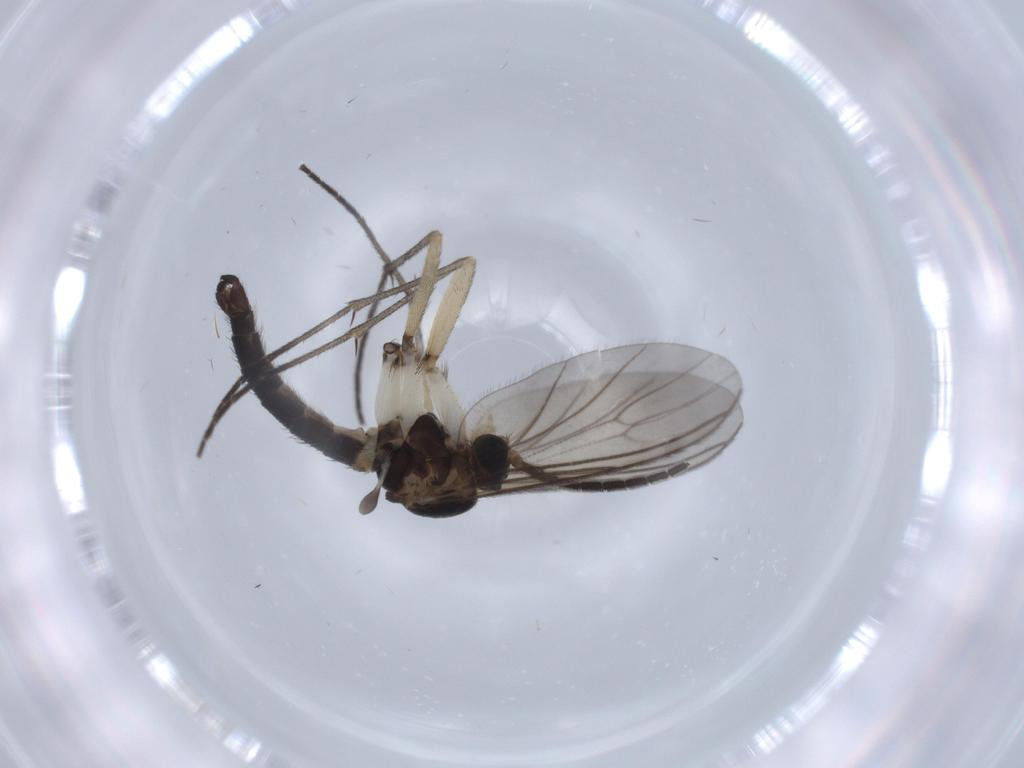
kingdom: Animalia
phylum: Arthropoda
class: Insecta
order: Diptera
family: Sciaridae
